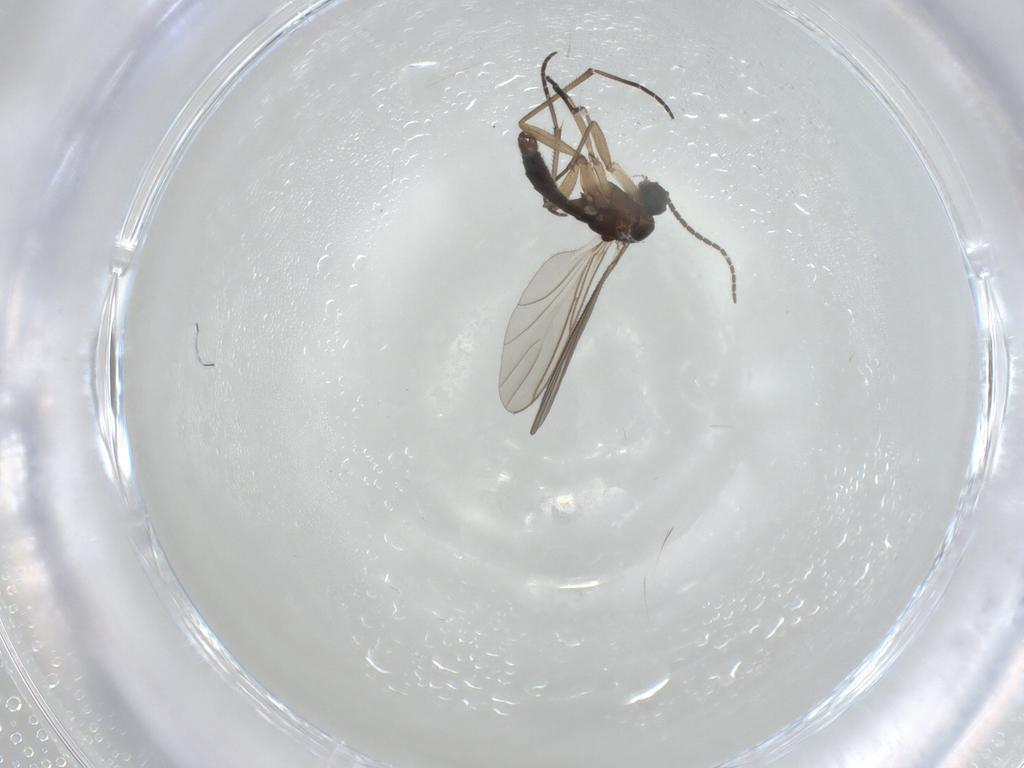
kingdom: Animalia
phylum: Arthropoda
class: Insecta
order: Diptera
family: Sciaridae
